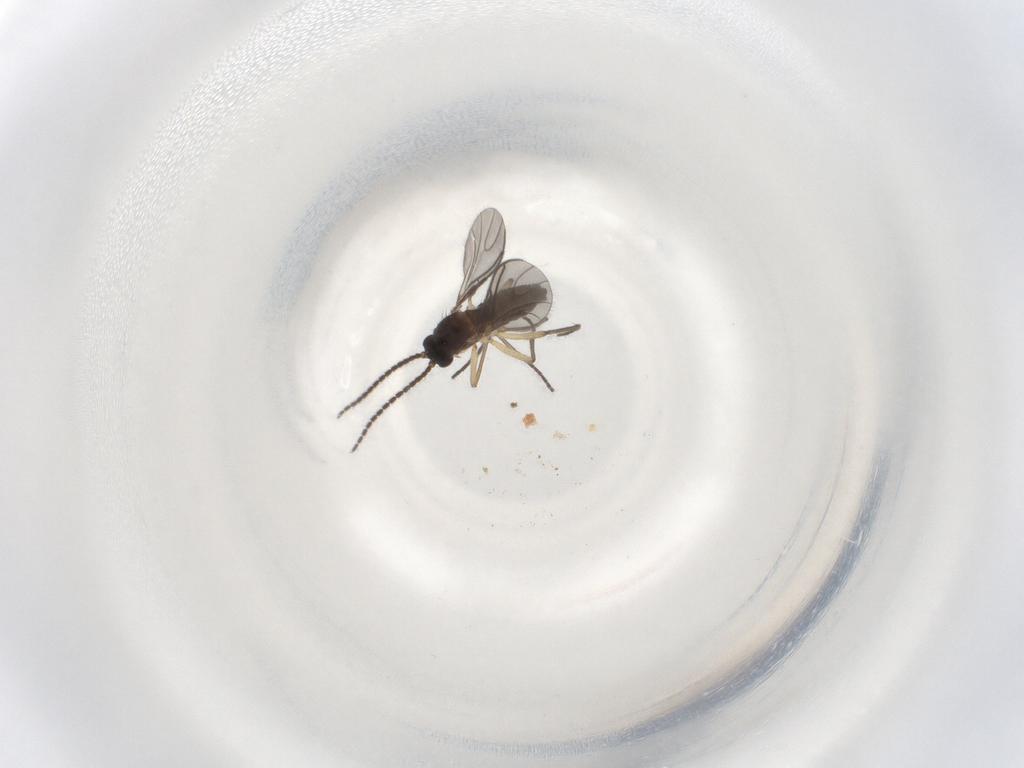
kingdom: Animalia
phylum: Arthropoda
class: Insecta
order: Diptera
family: Sciaridae
